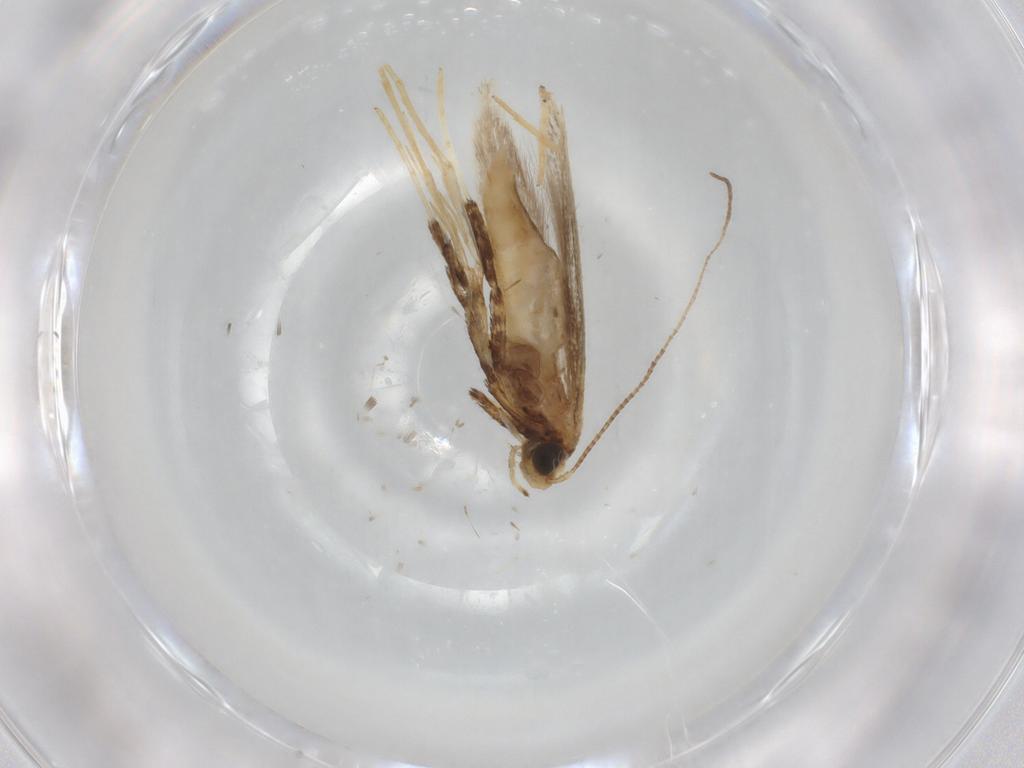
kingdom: Animalia
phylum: Arthropoda
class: Insecta
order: Lepidoptera
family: Gracillariidae
